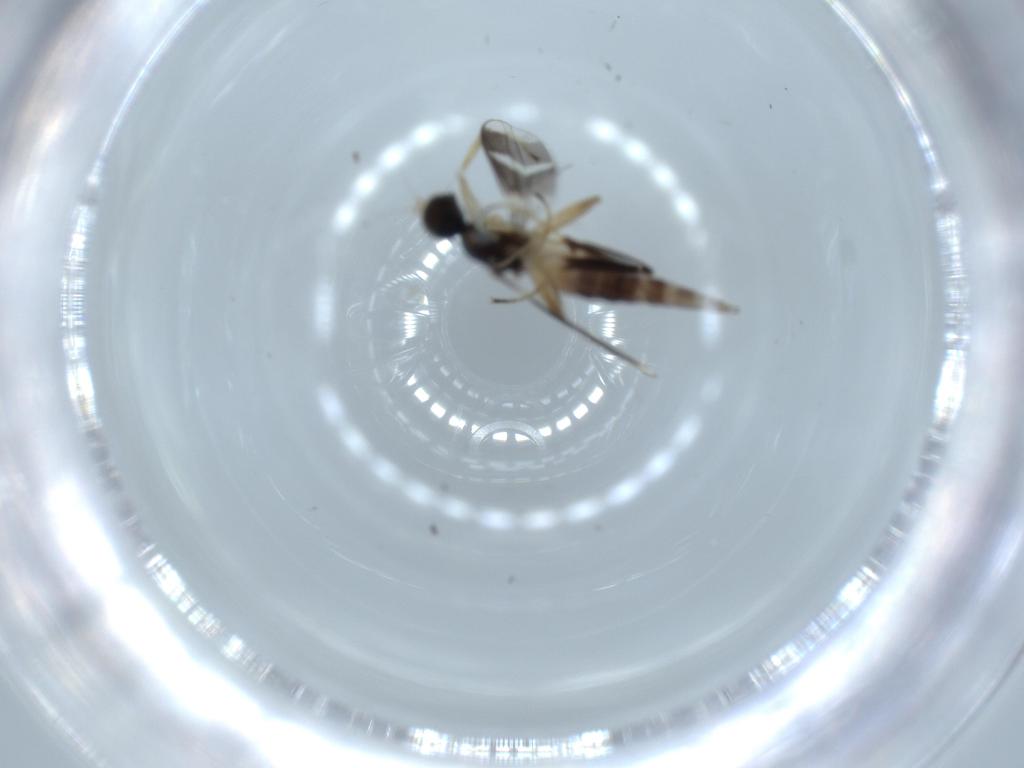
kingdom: Animalia
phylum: Arthropoda
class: Insecta
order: Diptera
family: Hybotidae
